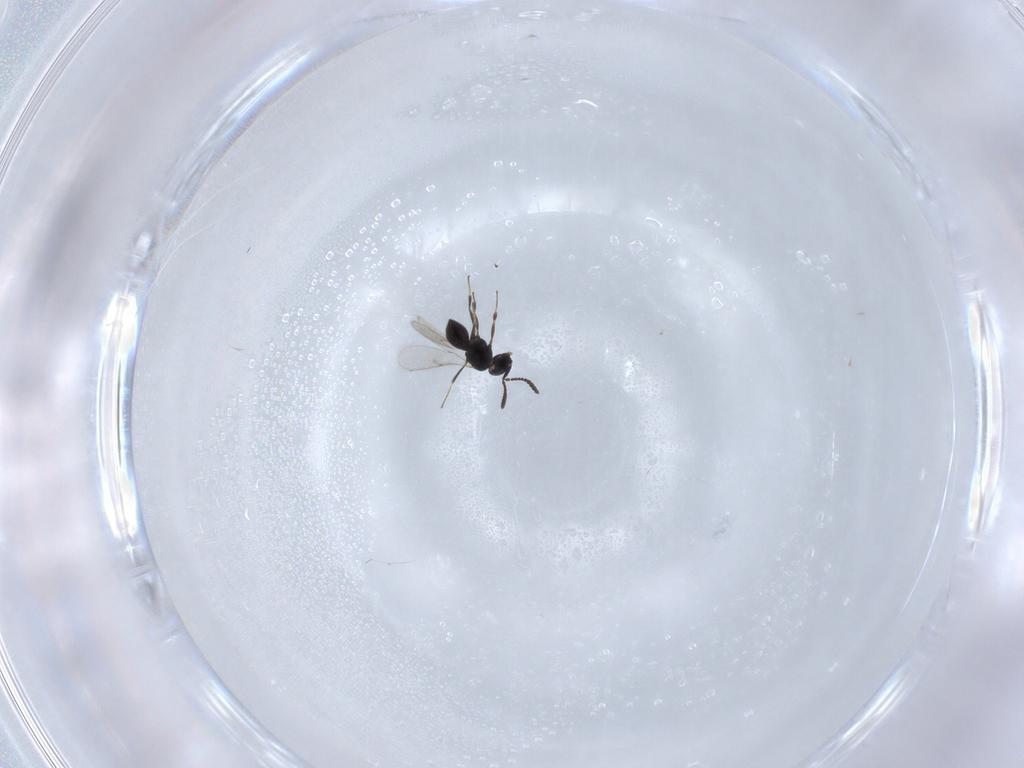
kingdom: Animalia
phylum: Arthropoda
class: Insecta
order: Hymenoptera
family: Scelionidae
